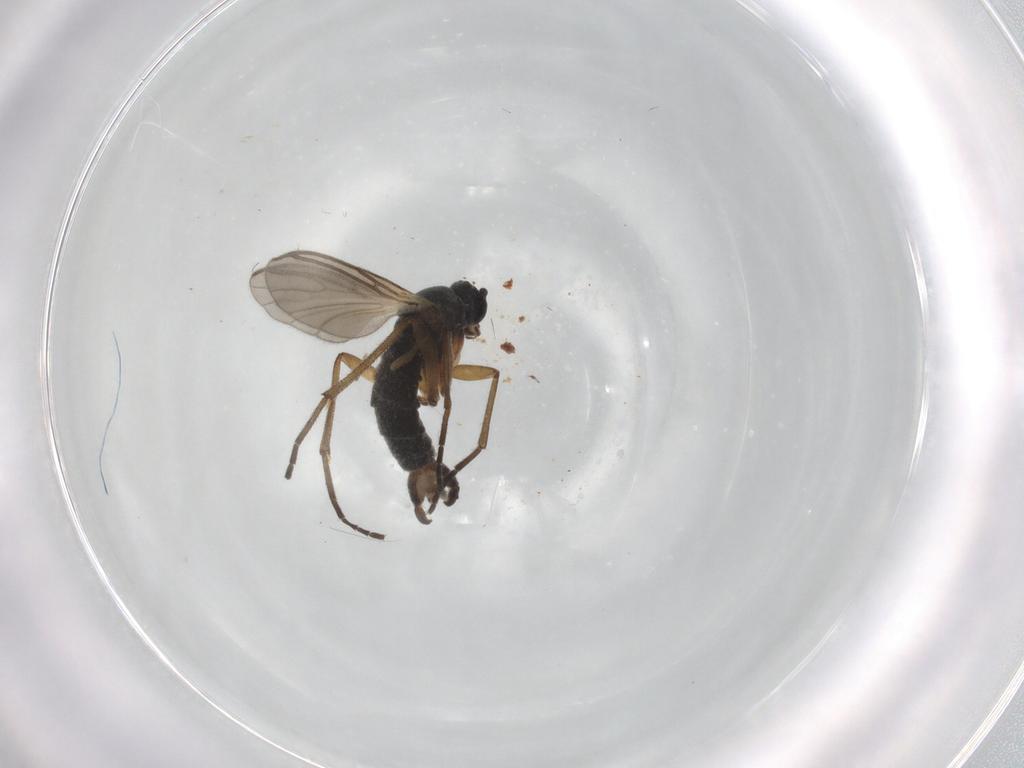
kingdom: Animalia
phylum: Arthropoda
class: Insecta
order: Diptera
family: Sciaridae
